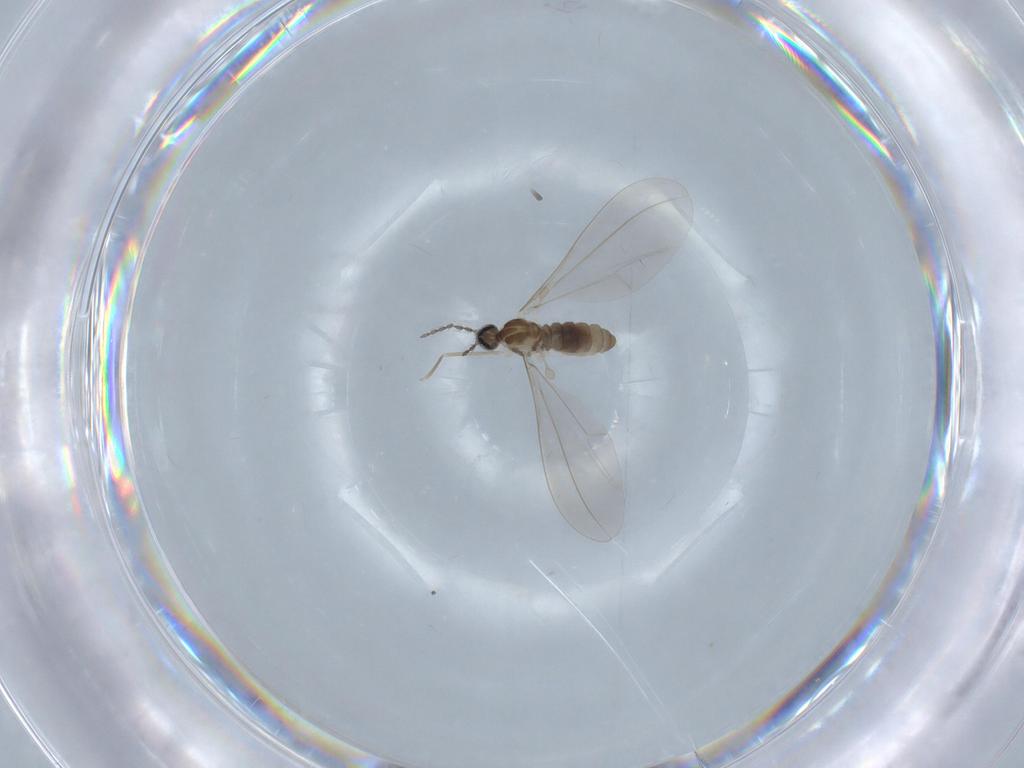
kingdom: Animalia
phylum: Arthropoda
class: Insecta
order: Diptera
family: Chironomidae
